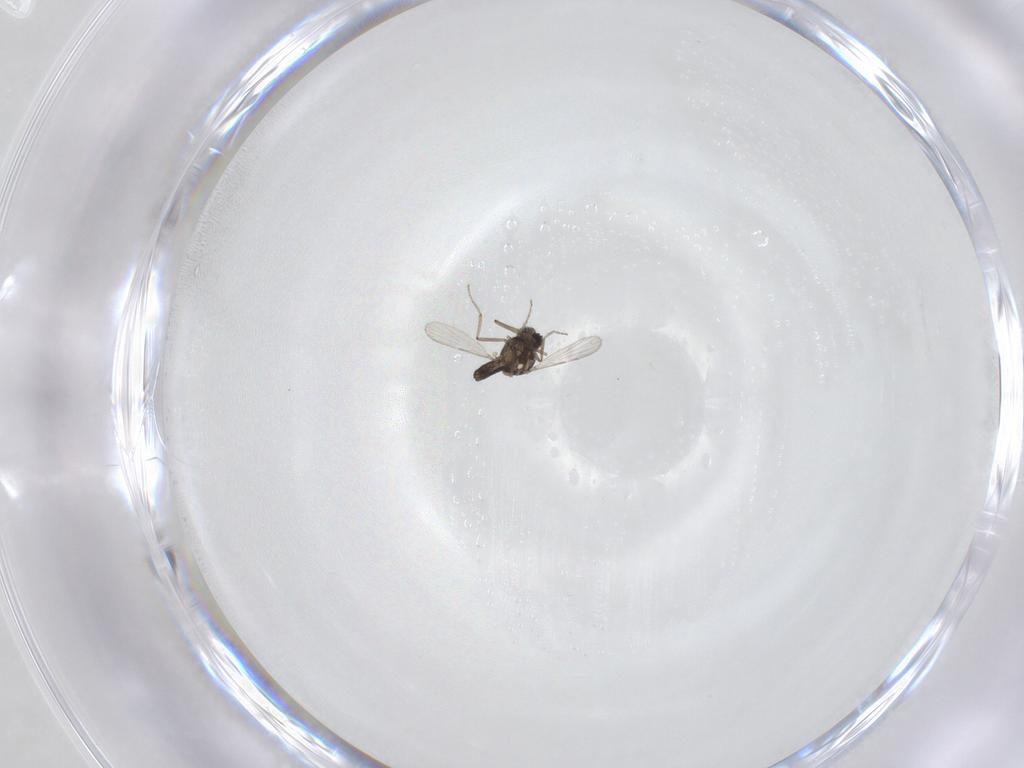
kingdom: Animalia
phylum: Arthropoda
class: Insecta
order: Diptera
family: Ceratopogonidae
